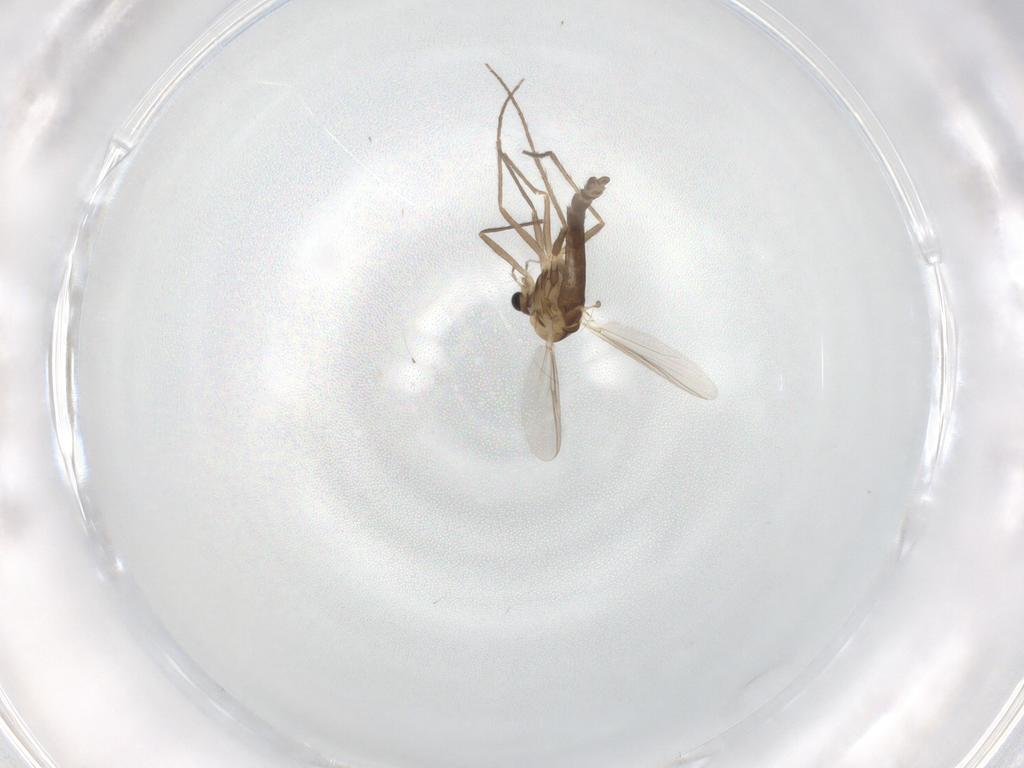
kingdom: Animalia
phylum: Arthropoda
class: Insecta
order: Diptera
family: Chironomidae
